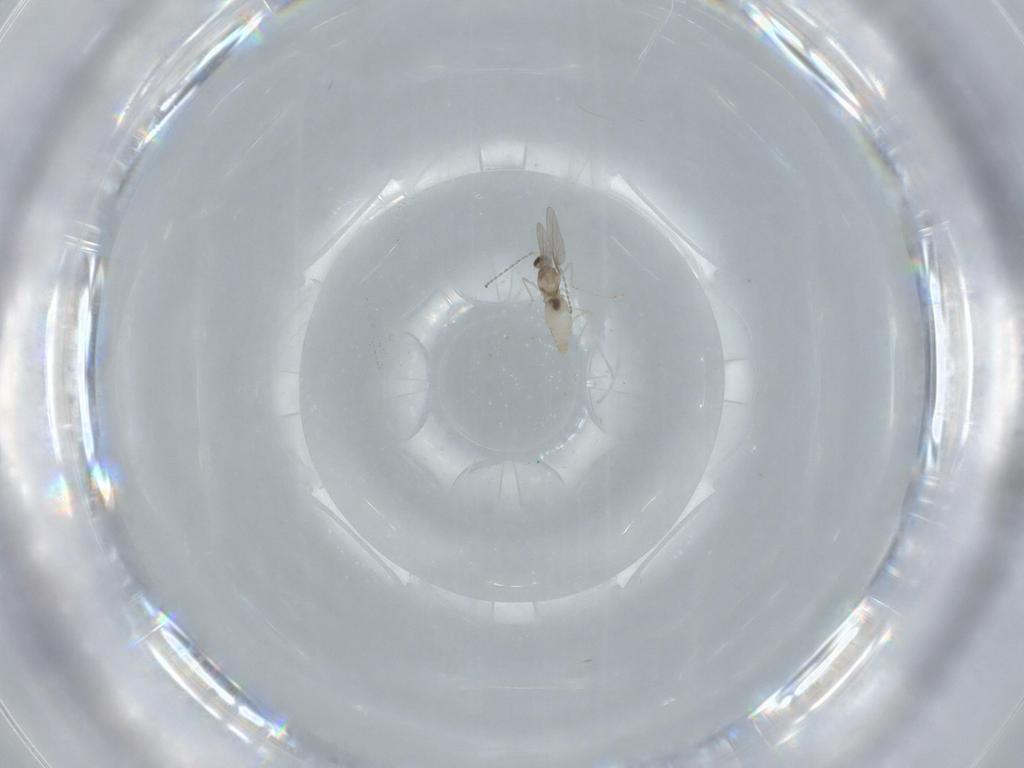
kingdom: Animalia
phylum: Arthropoda
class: Insecta
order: Diptera
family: Cecidomyiidae
